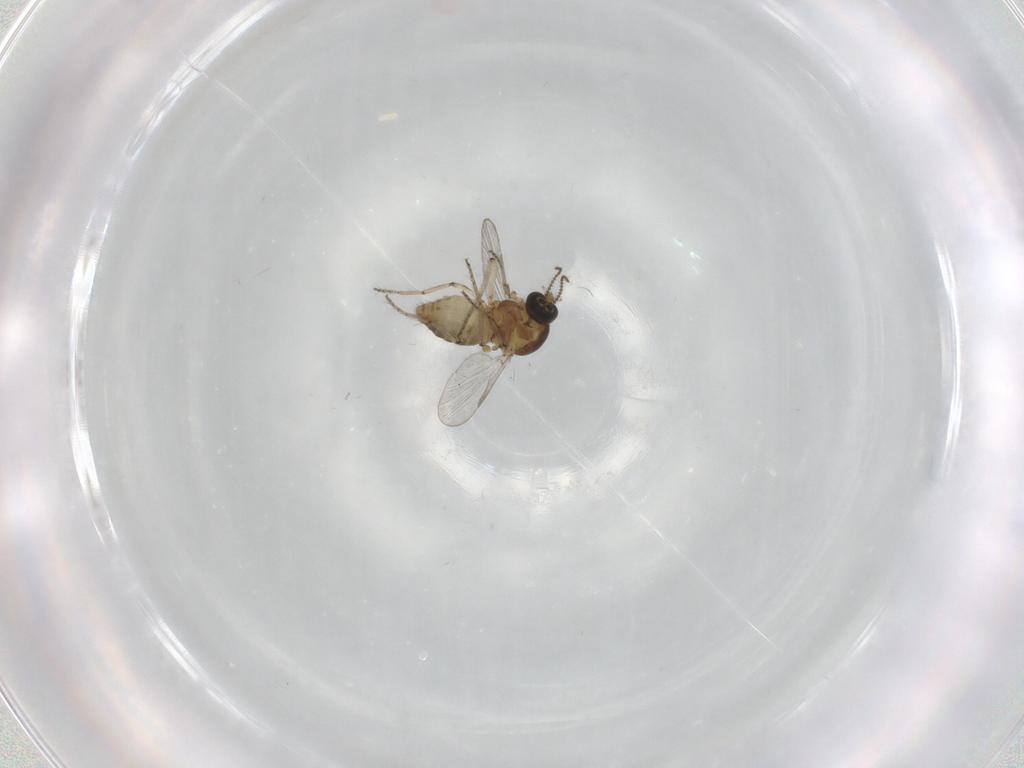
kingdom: Animalia
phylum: Arthropoda
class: Insecta
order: Diptera
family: Ceratopogonidae
